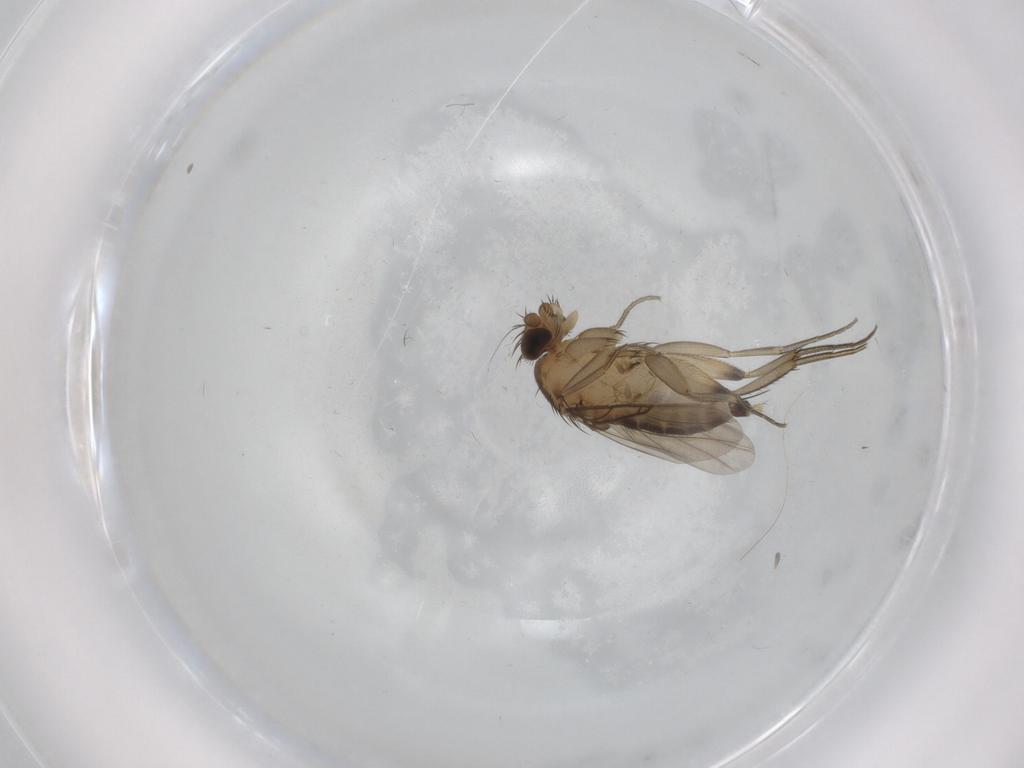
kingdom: Animalia
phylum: Arthropoda
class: Insecta
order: Diptera
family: Phoridae
